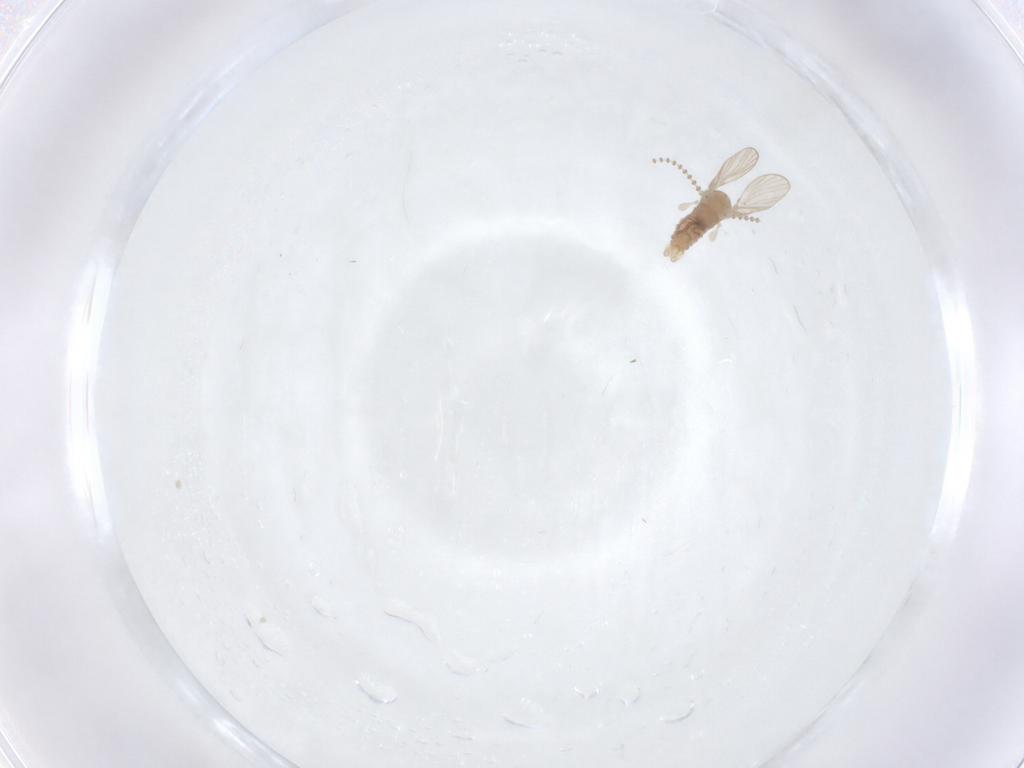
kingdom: Animalia
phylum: Arthropoda
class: Insecta
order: Diptera
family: Psychodidae
